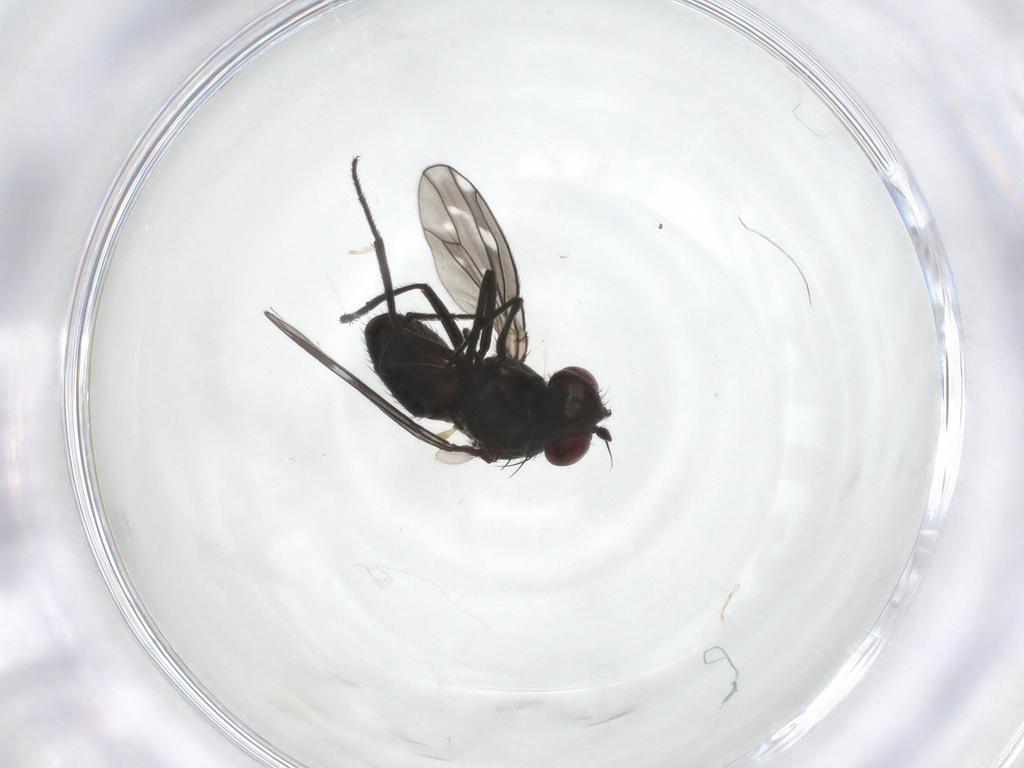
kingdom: Animalia
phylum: Arthropoda
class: Insecta
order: Diptera
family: Ephydridae
